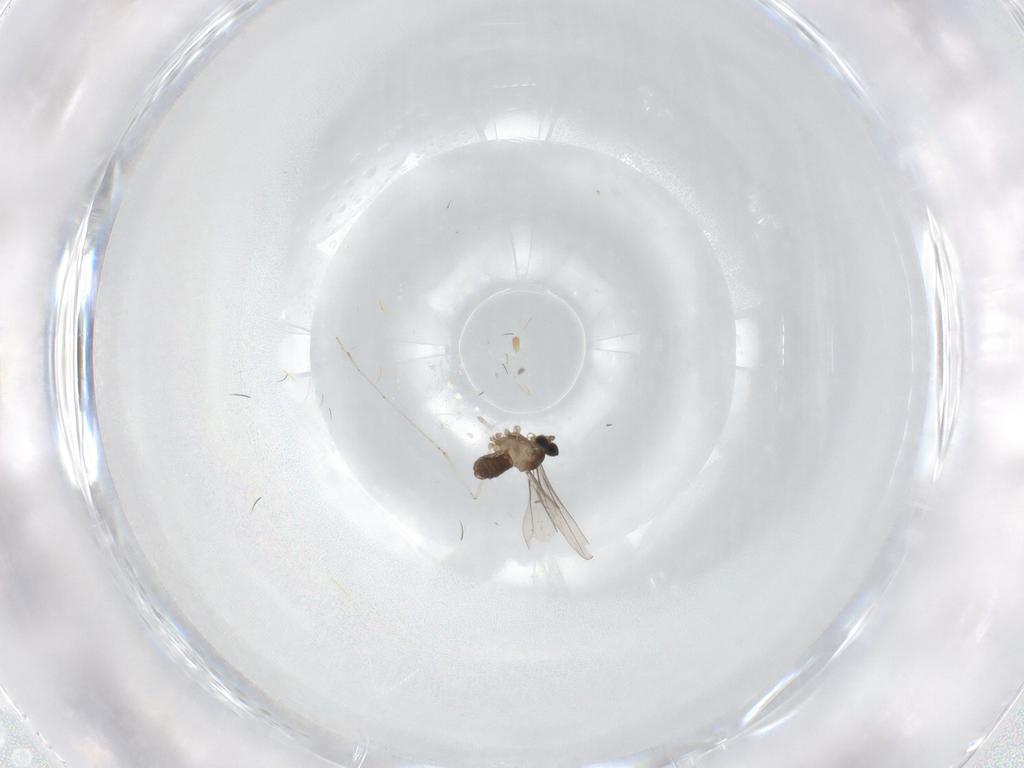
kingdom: Animalia
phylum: Arthropoda
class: Insecta
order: Diptera
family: Cecidomyiidae
